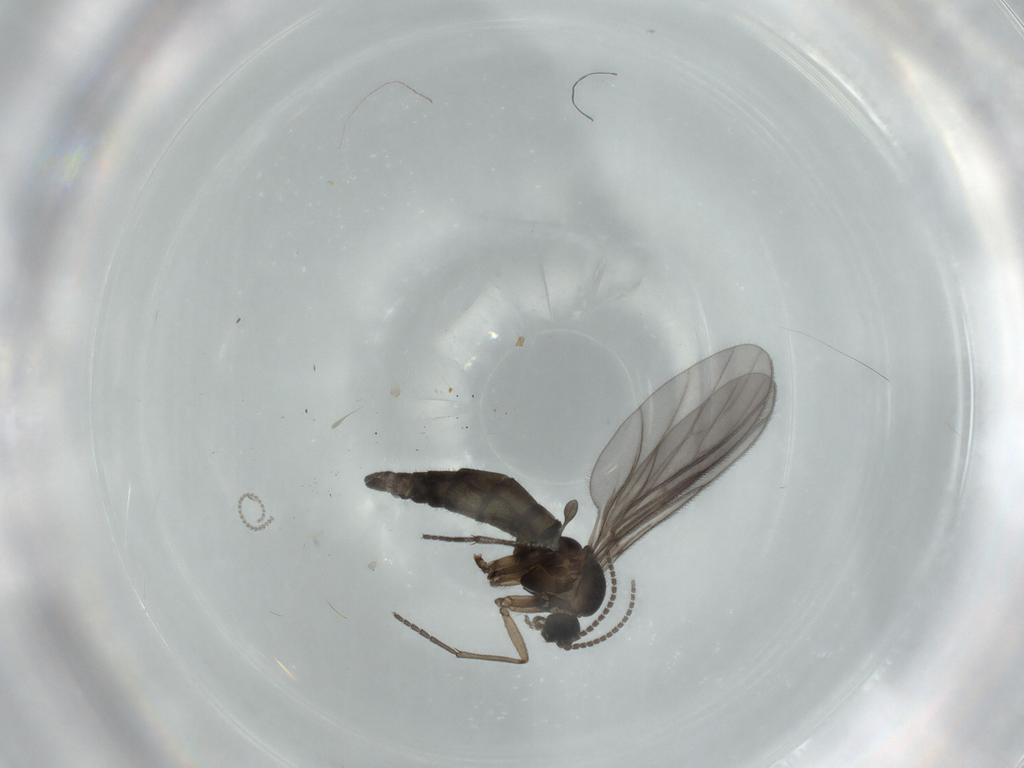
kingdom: Animalia
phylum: Arthropoda
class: Insecta
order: Diptera
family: Sciaridae
